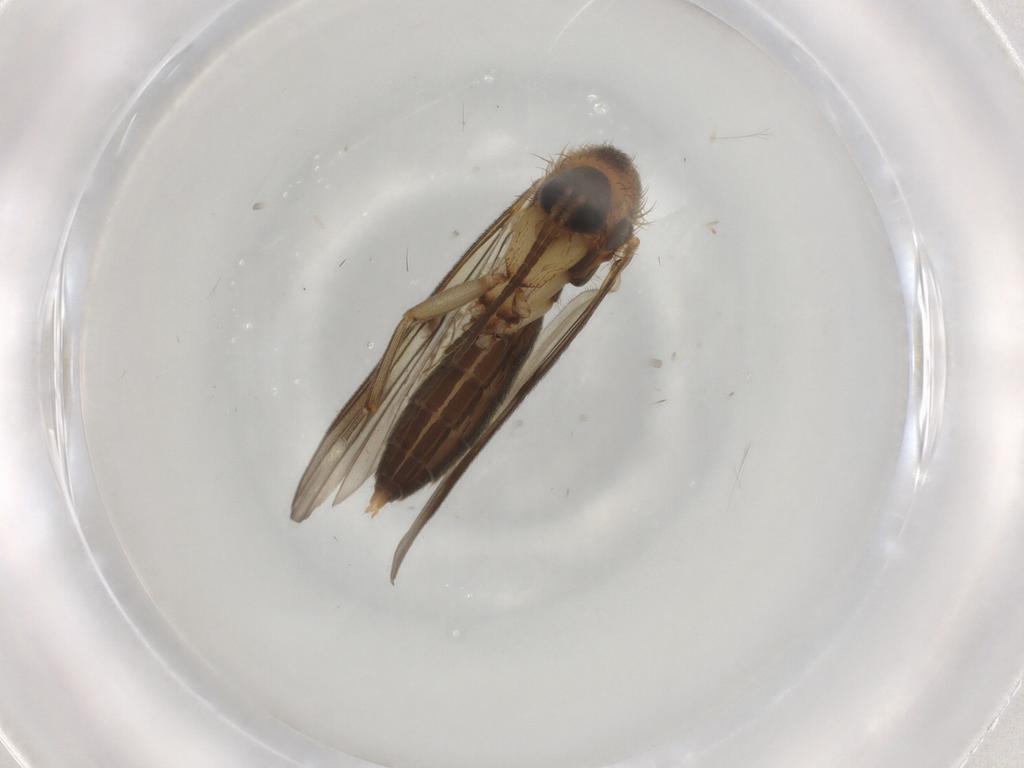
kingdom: Animalia
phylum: Arthropoda
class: Insecta
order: Diptera
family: Mycetophilidae
